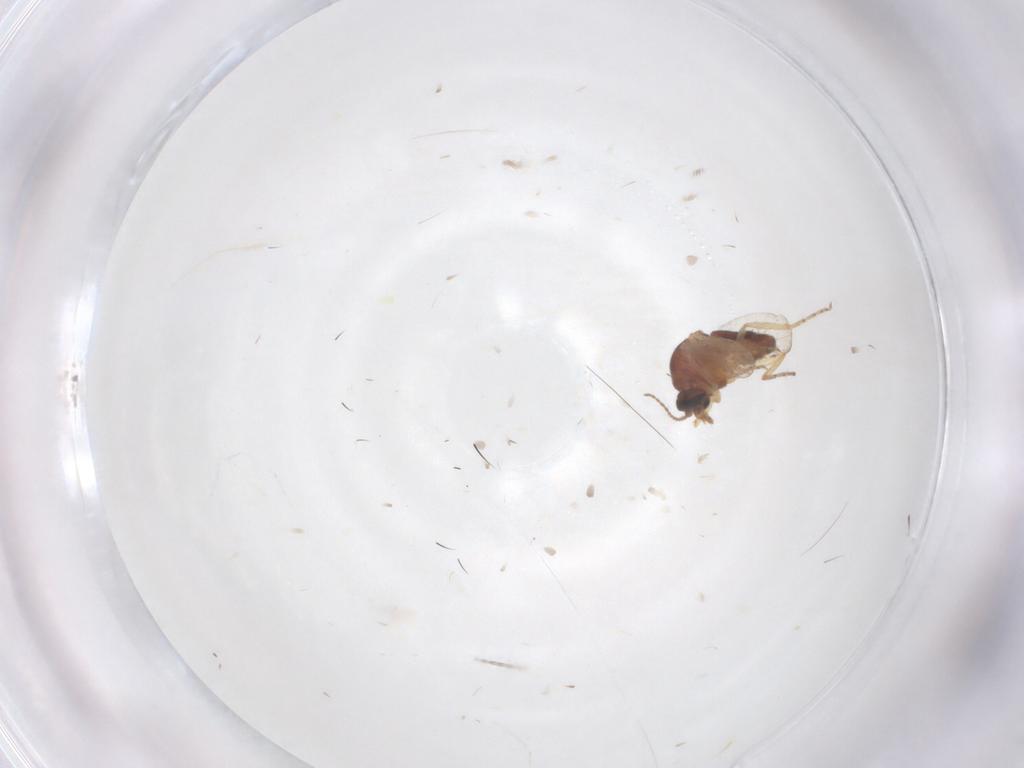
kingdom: Animalia
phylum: Arthropoda
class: Insecta
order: Diptera
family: Ceratopogonidae
